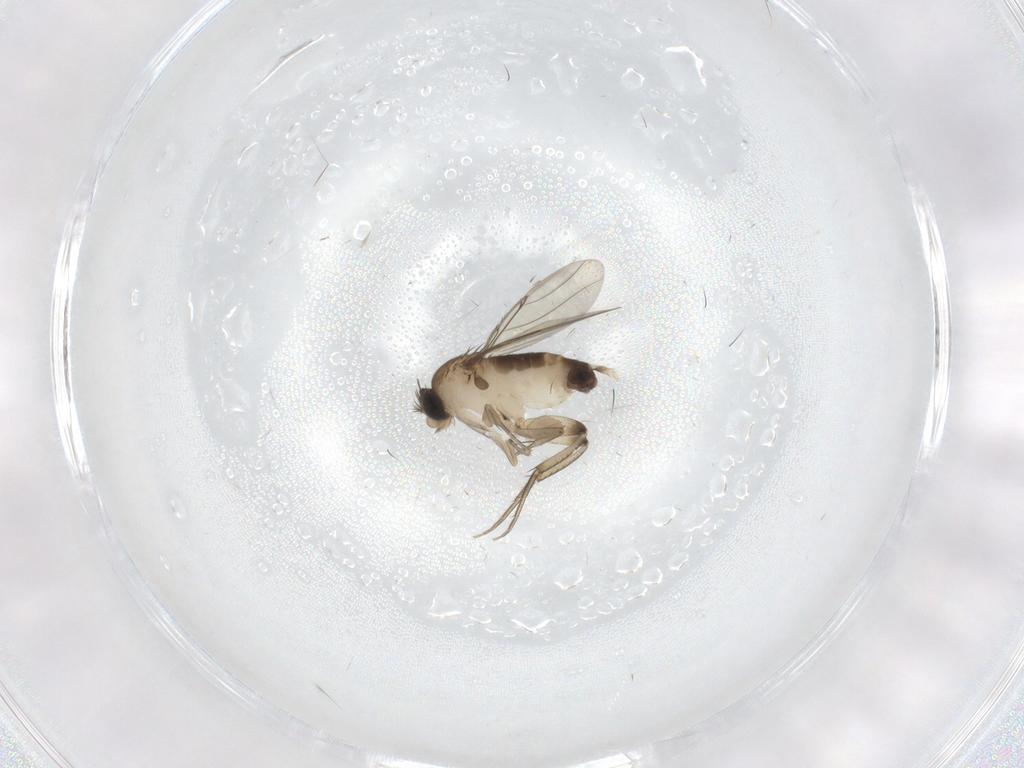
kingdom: Animalia
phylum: Arthropoda
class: Insecta
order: Diptera
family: Phoridae
